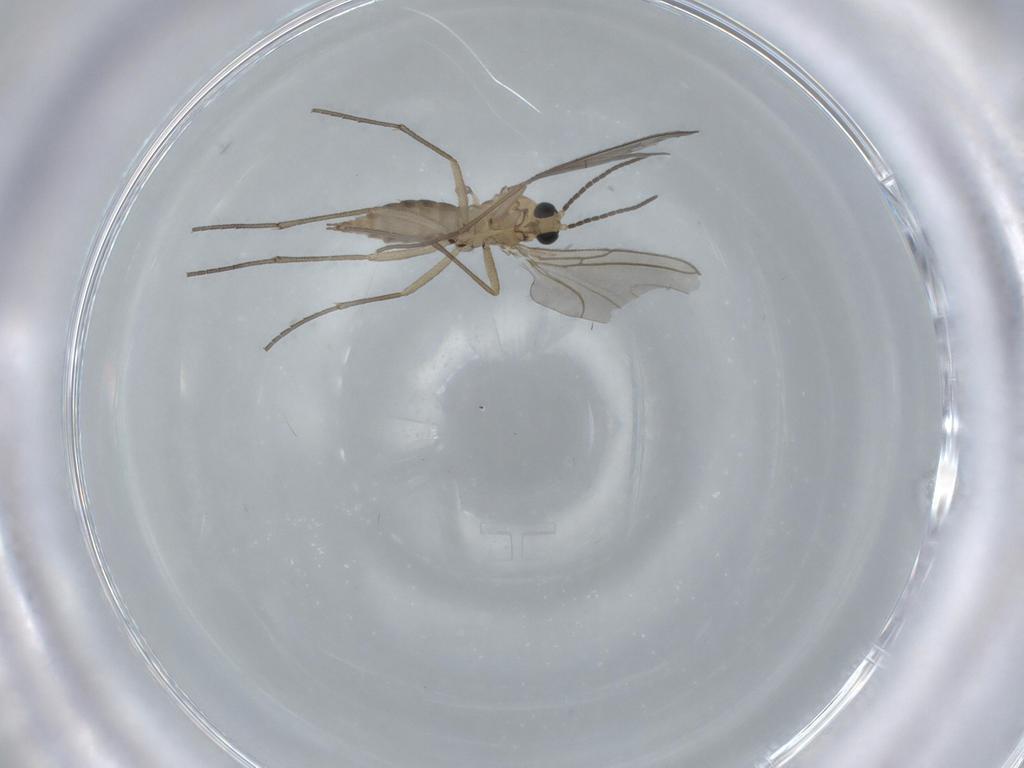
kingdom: Animalia
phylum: Arthropoda
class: Insecta
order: Diptera
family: Sciaridae
